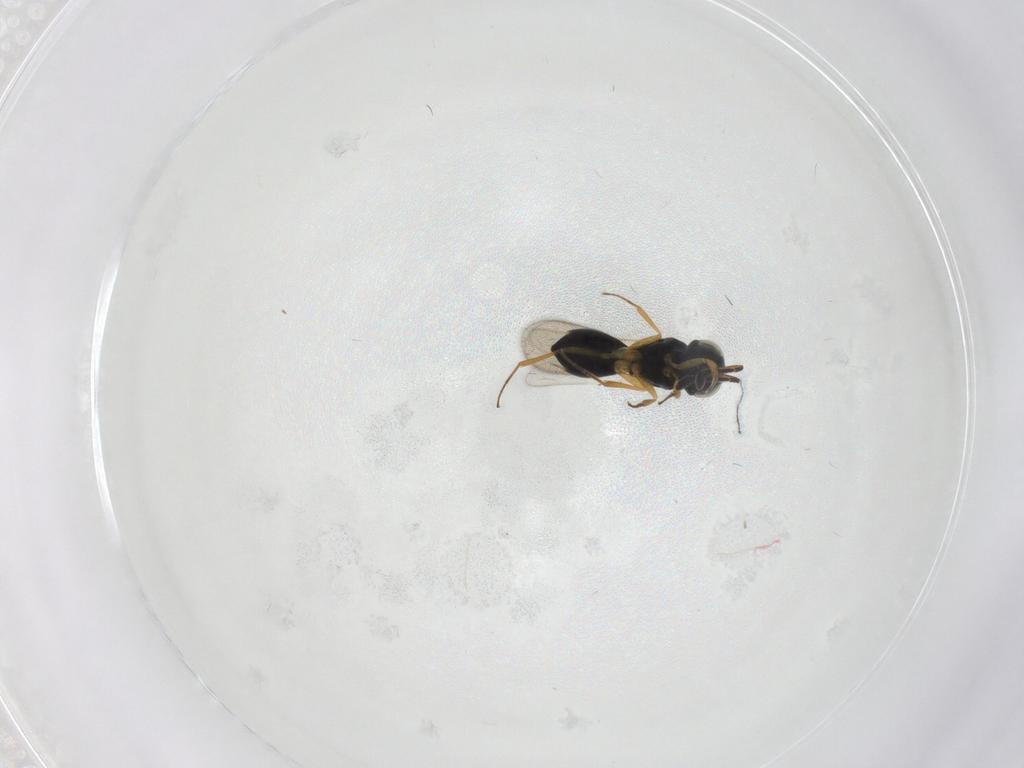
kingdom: Animalia
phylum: Arthropoda
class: Insecta
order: Hymenoptera
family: Scelionidae
